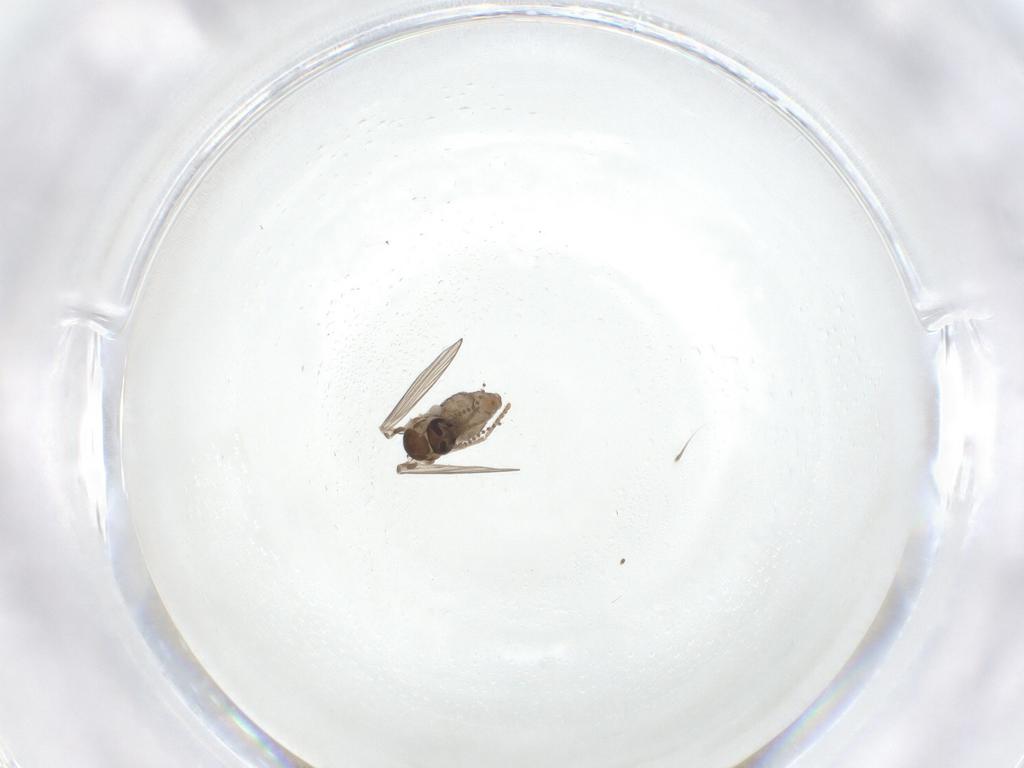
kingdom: Animalia
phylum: Arthropoda
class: Insecta
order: Diptera
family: Psychodidae
